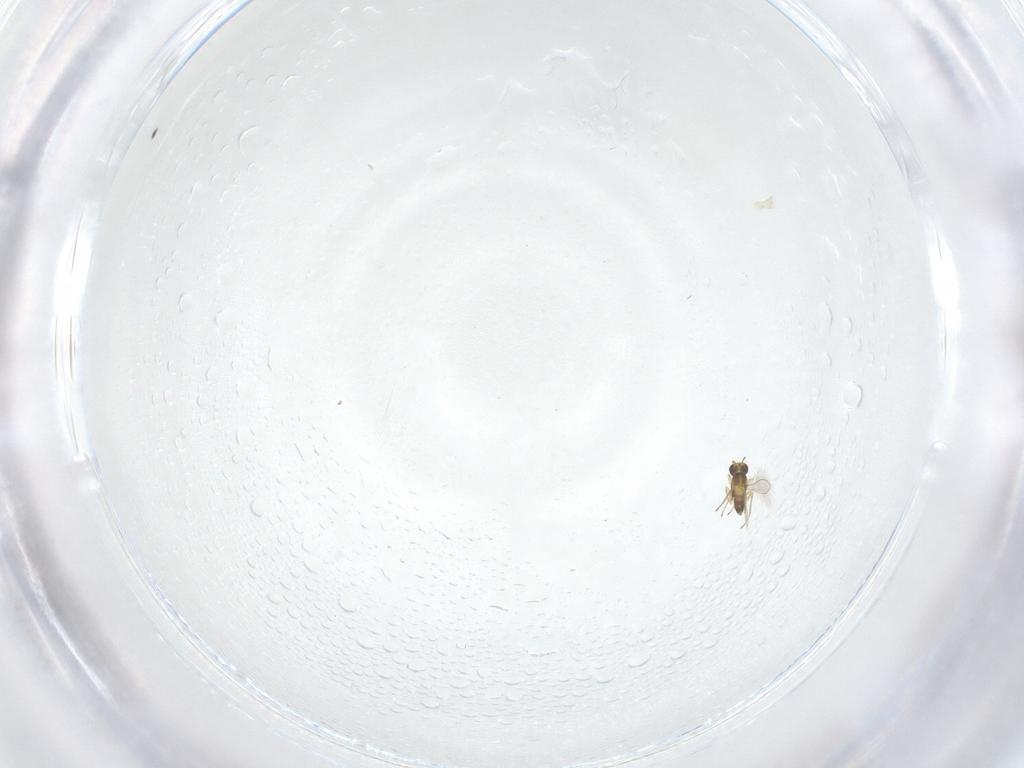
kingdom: Animalia
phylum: Arthropoda
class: Insecta
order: Hymenoptera
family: Mymaridae
